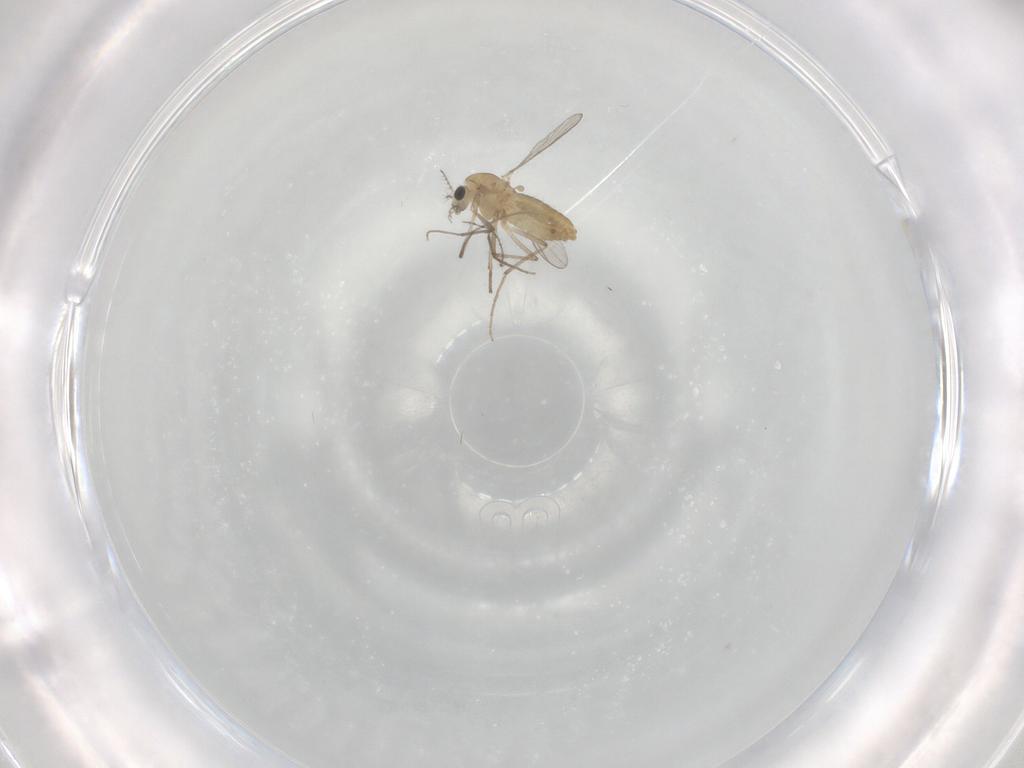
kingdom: Animalia
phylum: Arthropoda
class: Insecta
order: Diptera
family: Chironomidae
